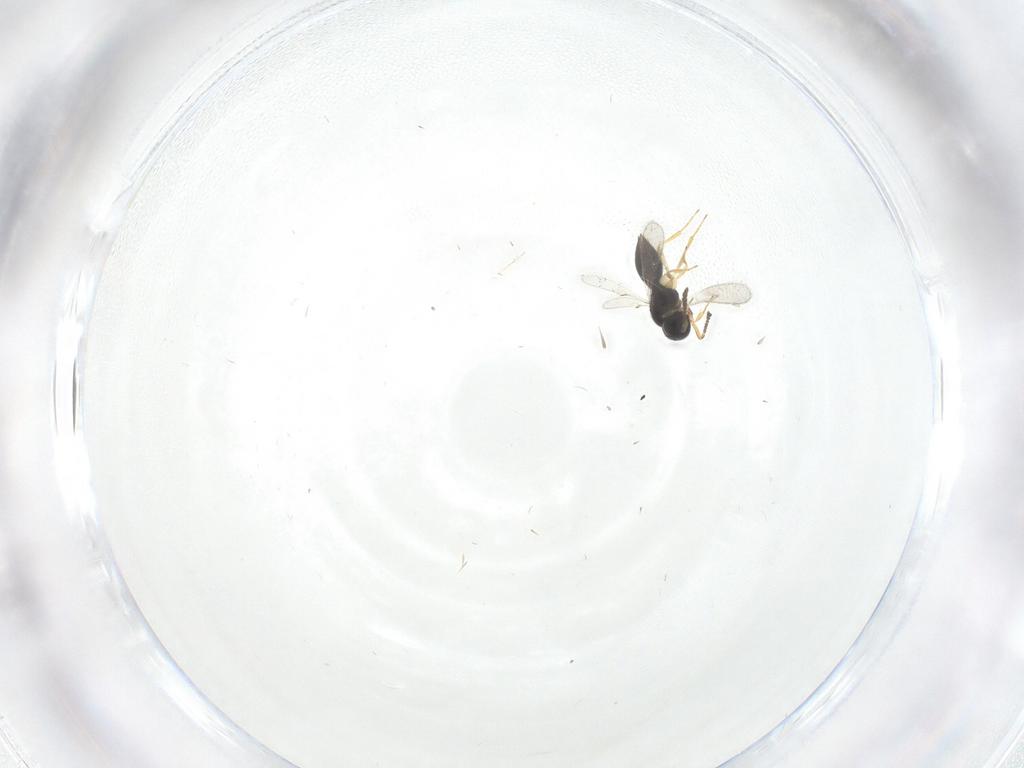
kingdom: Animalia
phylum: Arthropoda
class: Insecta
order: Hymenoptera
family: Scelionidae
